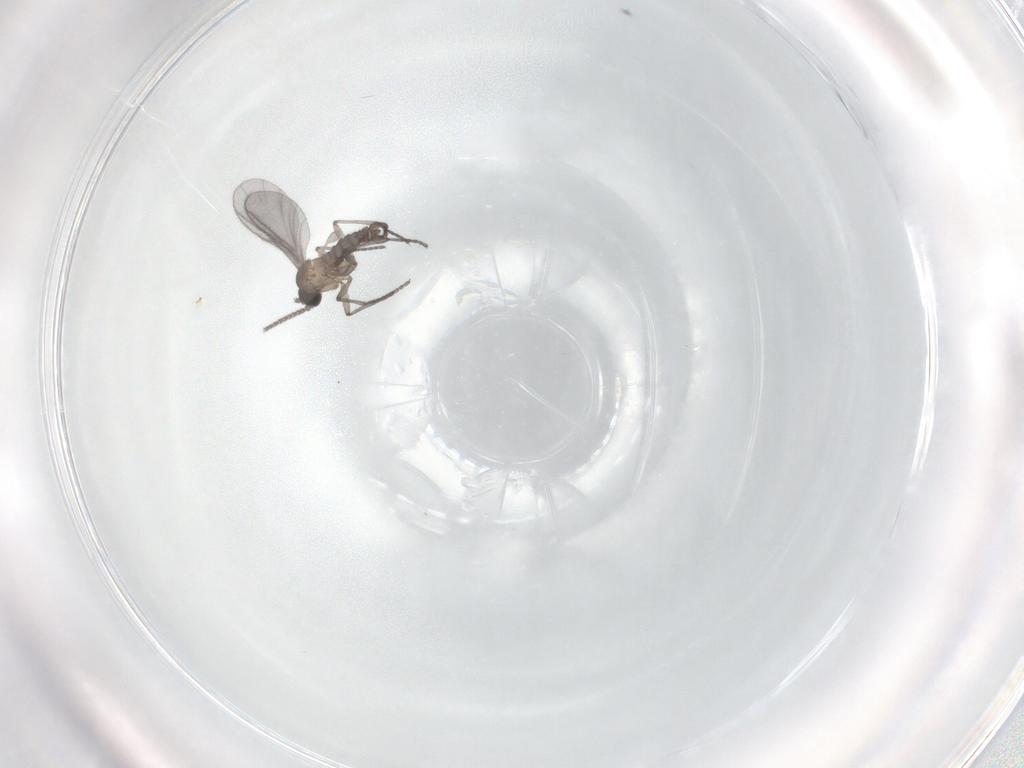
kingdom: Animalia
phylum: Arthropoda
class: Insecta
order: Diptera
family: Sciaridae
